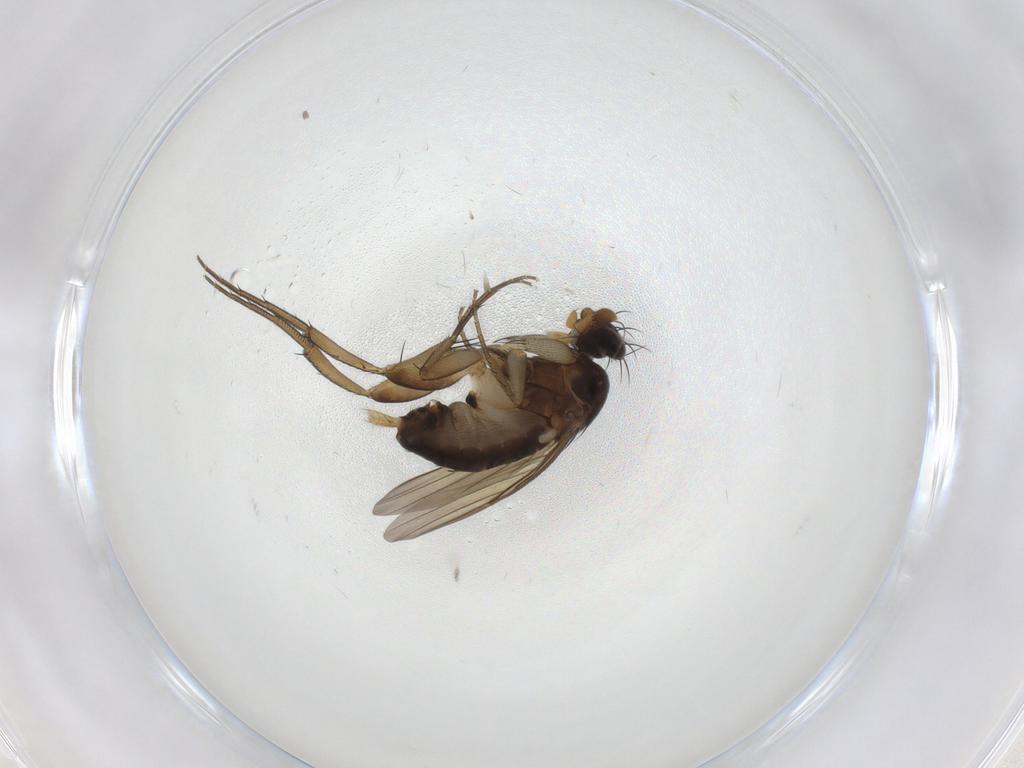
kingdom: Animalia
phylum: Arthropoda
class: Insecta
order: Diptera
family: Phoridae
